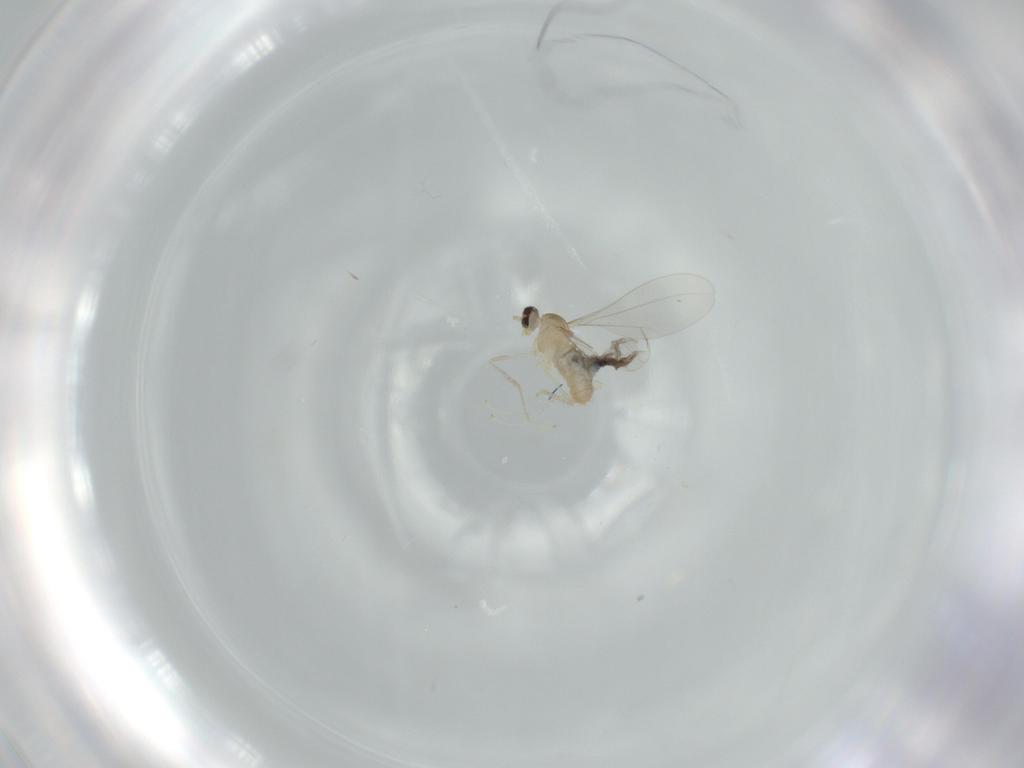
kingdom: Animalia
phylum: Arthropoda
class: Insecta
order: Diptera
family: Cecidomyiidae
